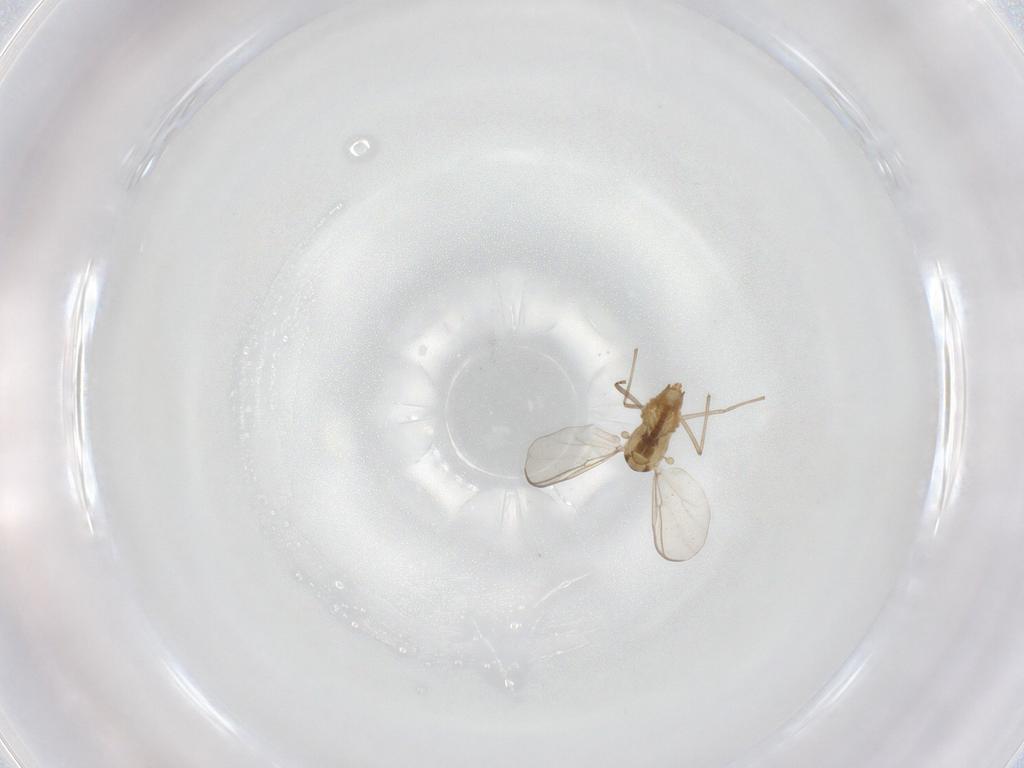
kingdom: Animalia
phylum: Arthropoda
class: Insecta
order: Diptera
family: Chironomidae
